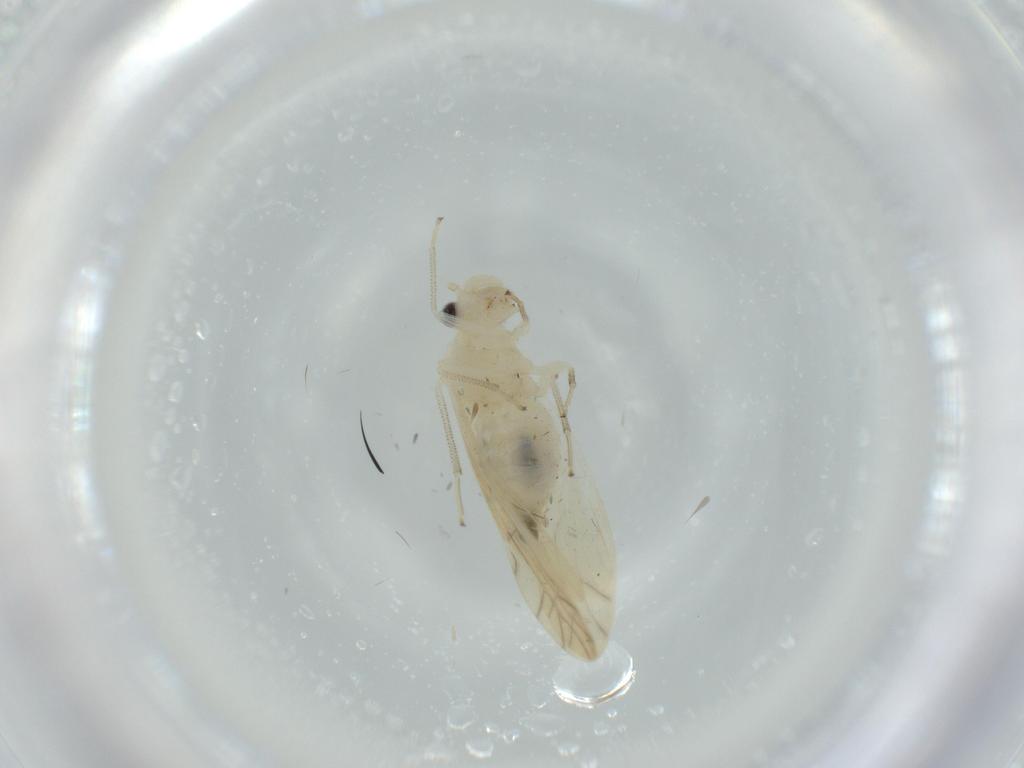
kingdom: Animalia
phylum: Arthropoda
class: Insecta
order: Psocodea
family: Caeciliusidae
